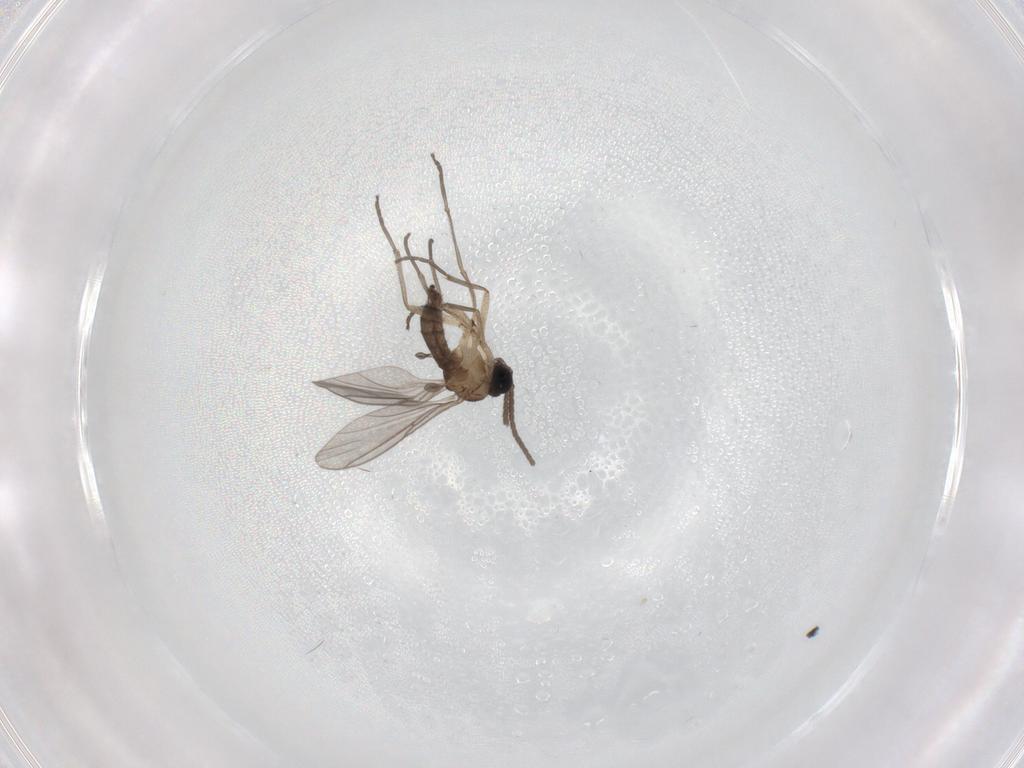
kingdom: Animalia
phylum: Arthropoda
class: Insecta
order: Diptera
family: Sciaridae
